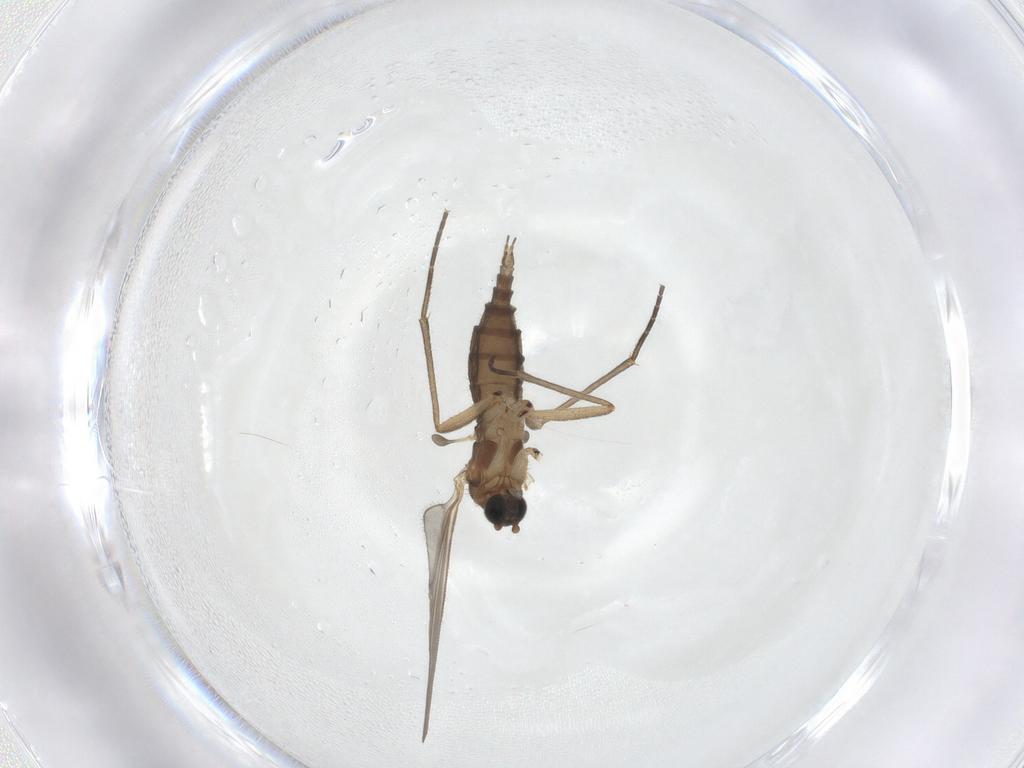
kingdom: Animalia
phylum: Arthropoda
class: Insecta
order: Diptera
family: Sciaridae
